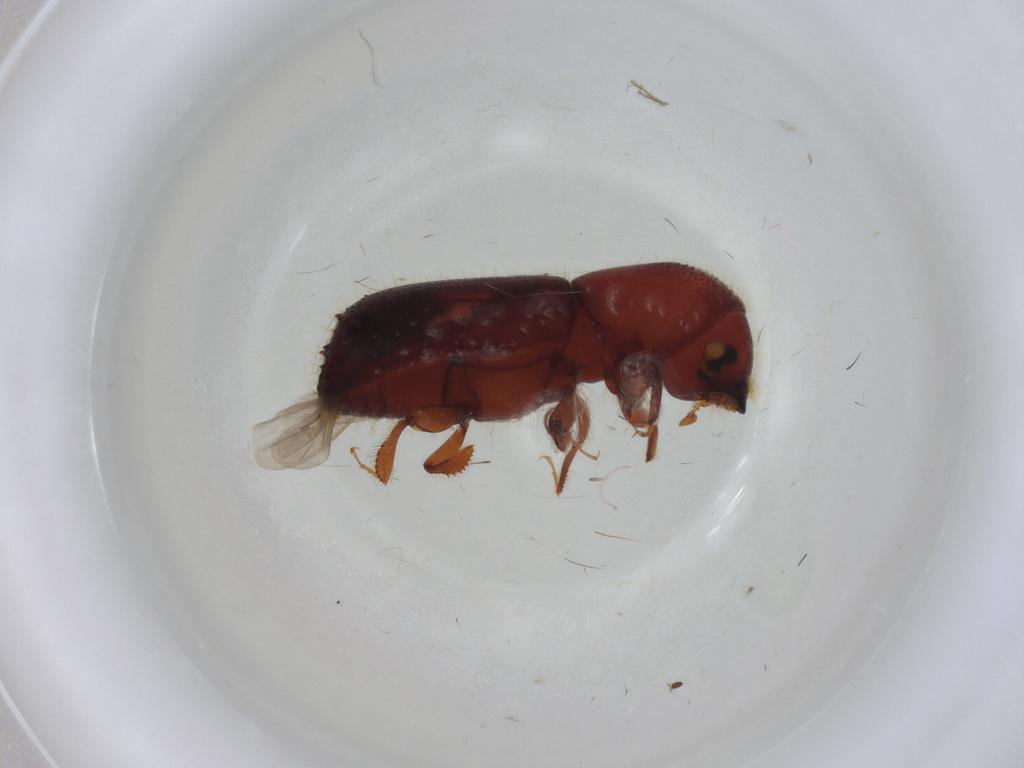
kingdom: Animalia
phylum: Arthropoda
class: Insecta
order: Coleoptera
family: Curculionidae
